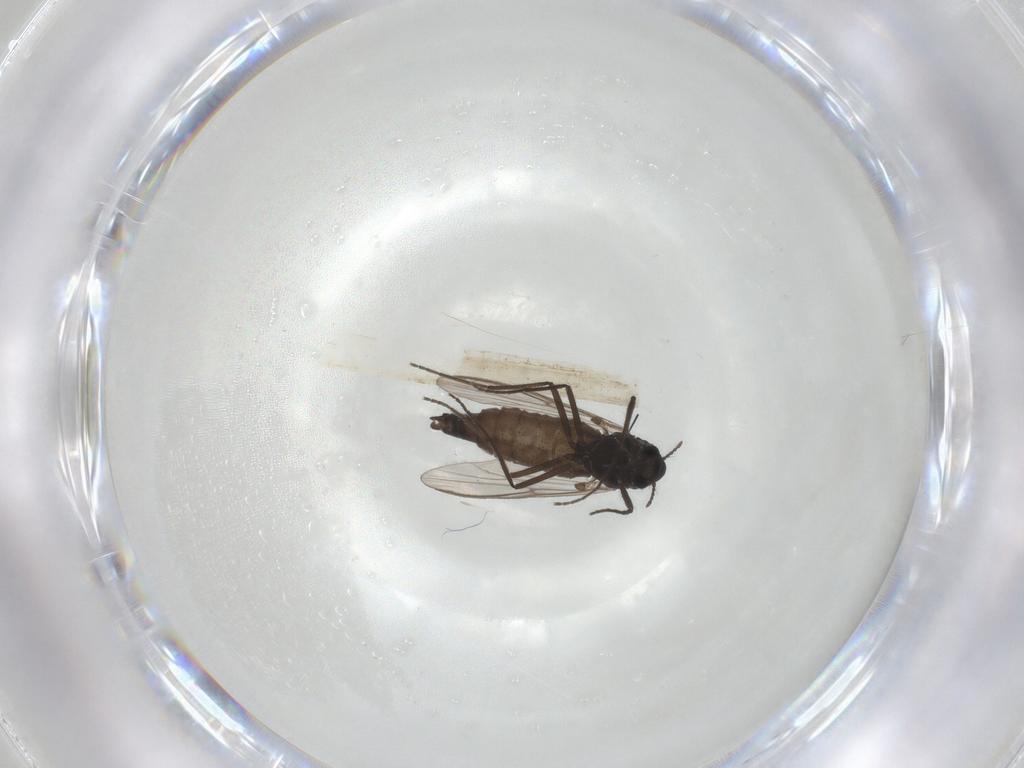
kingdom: Animalia
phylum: Arthropoda
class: Insecta
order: Diptera
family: Chironomidae
